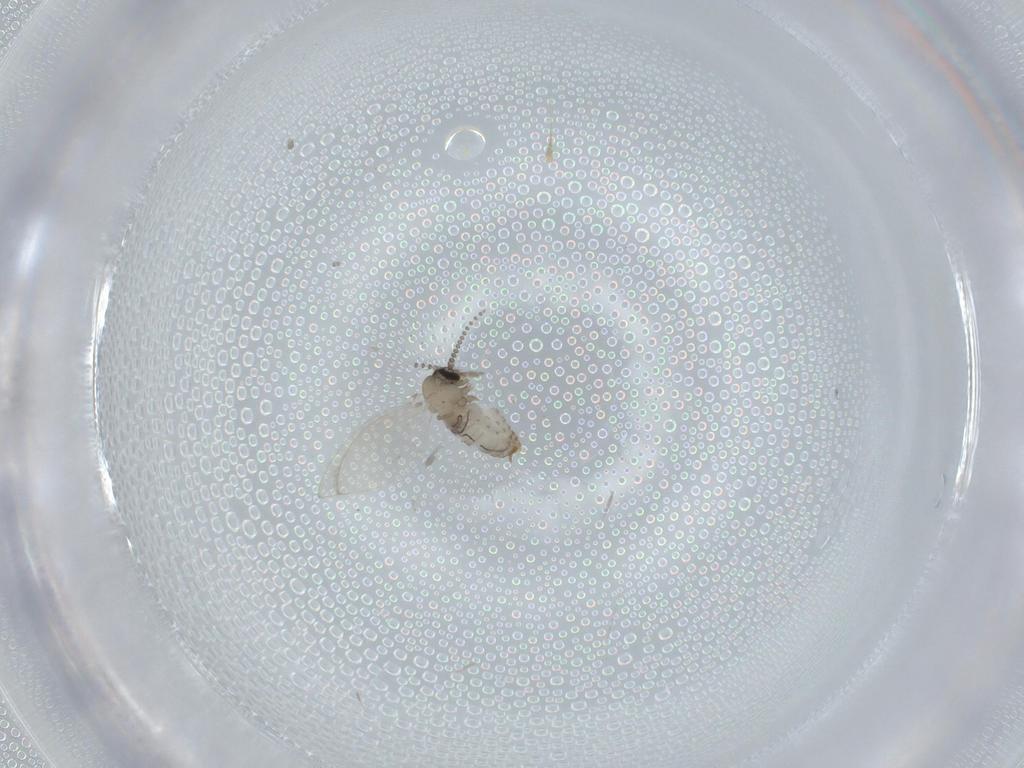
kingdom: Animalia
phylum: Arthropoda
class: Insecta
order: Diptera
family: Psychodidae
